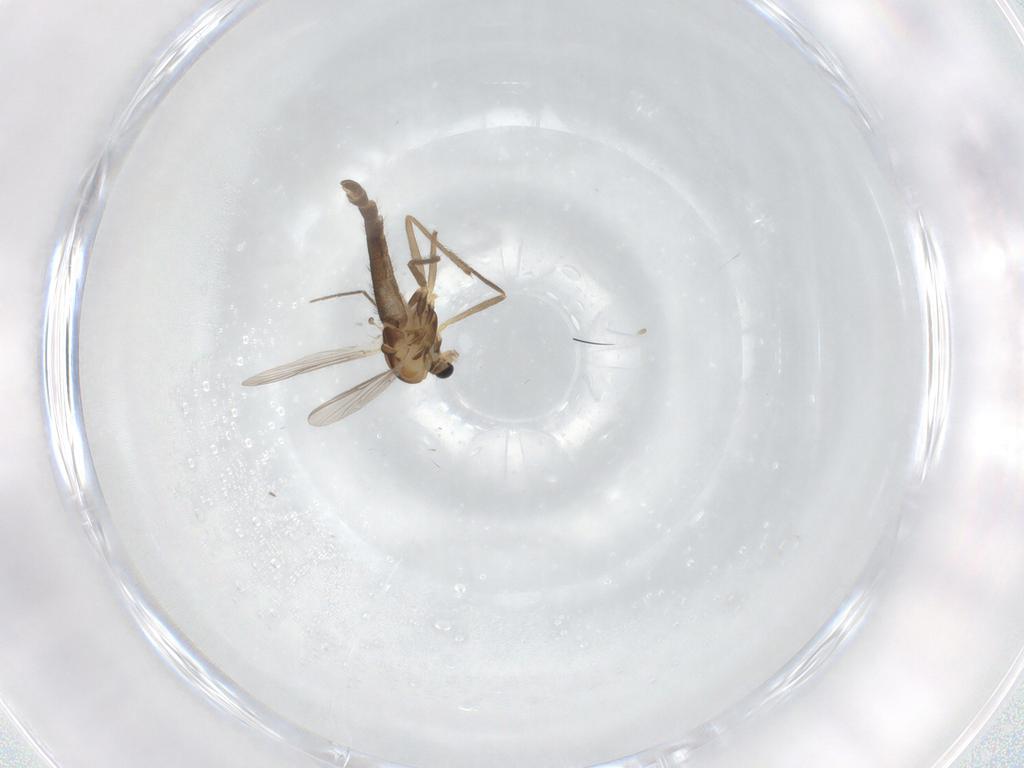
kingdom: Animalia
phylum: Arthropoda
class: Insecta
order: Diptera
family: Chironomidae
